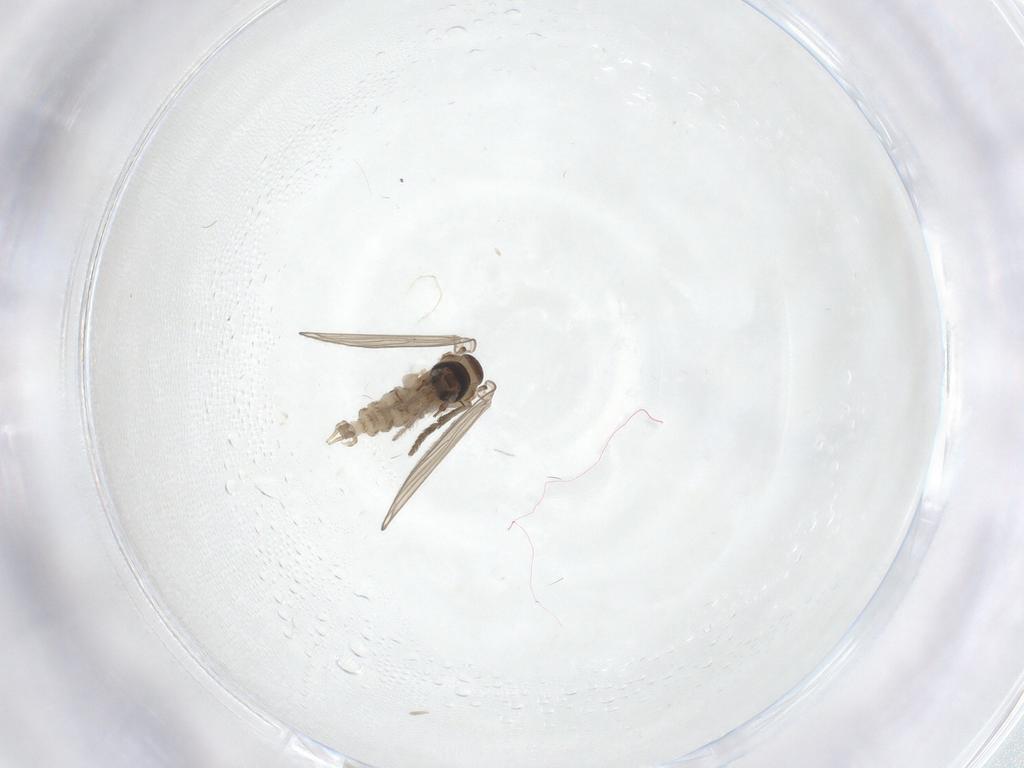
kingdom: Animalia
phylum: Arthropoda
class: Insecta
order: Diptera
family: Psychodidae
